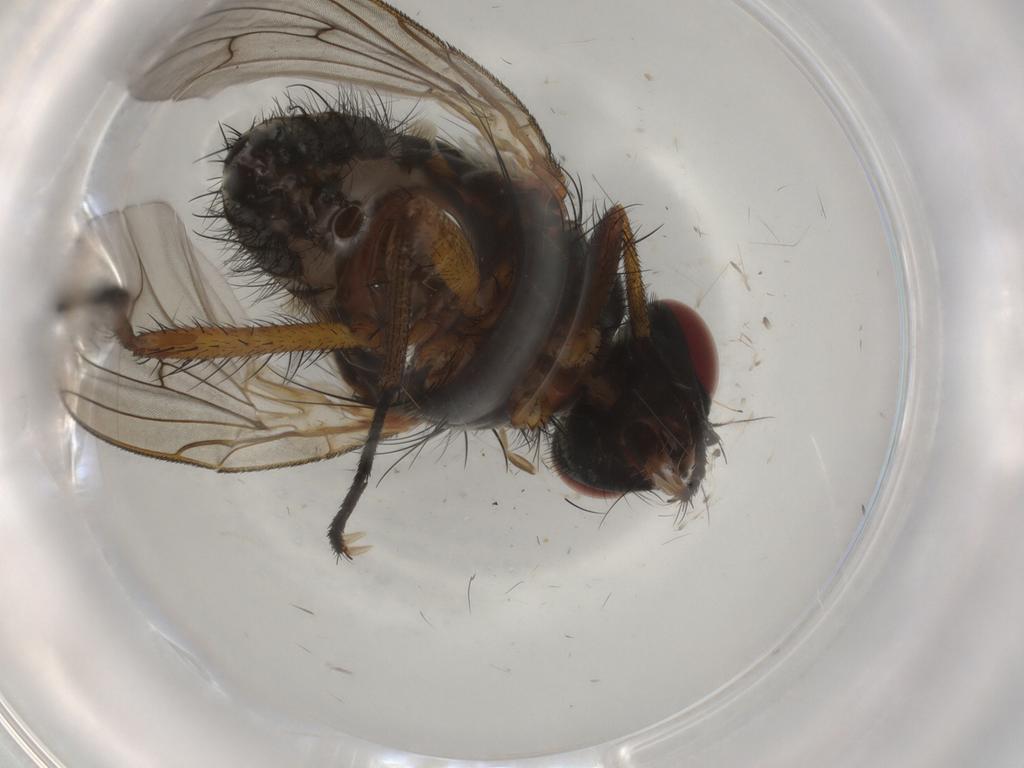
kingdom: Animalia
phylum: Arthropoda
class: Insecta
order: Diptera
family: Anthomyiidae
